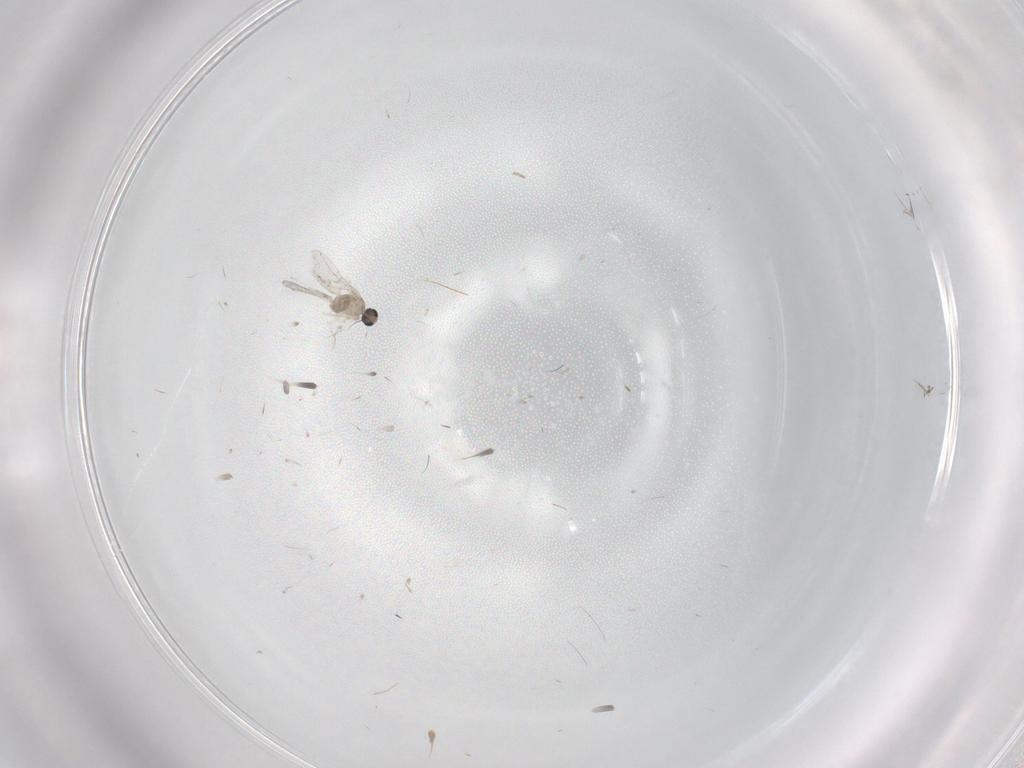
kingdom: Animalia
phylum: Arthropoda
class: Insecta
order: Diptera
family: Cecidomyiidae
